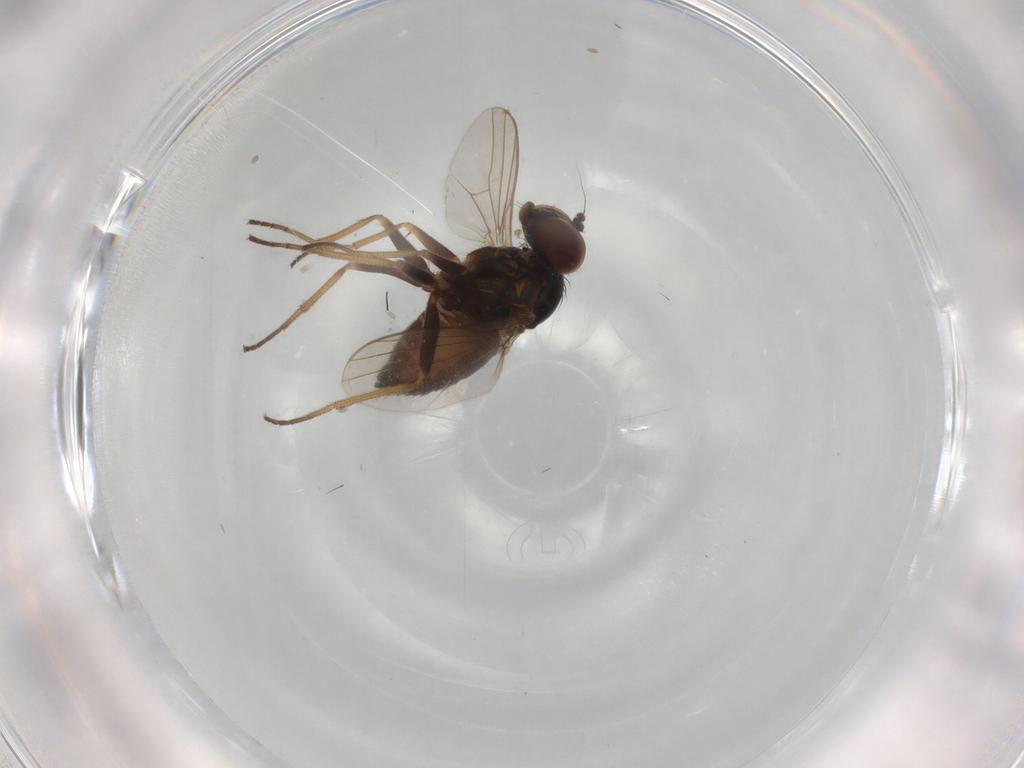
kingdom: Animalia
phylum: Arthropoda
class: Insecta
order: Diptera
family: Dolichopodidae
